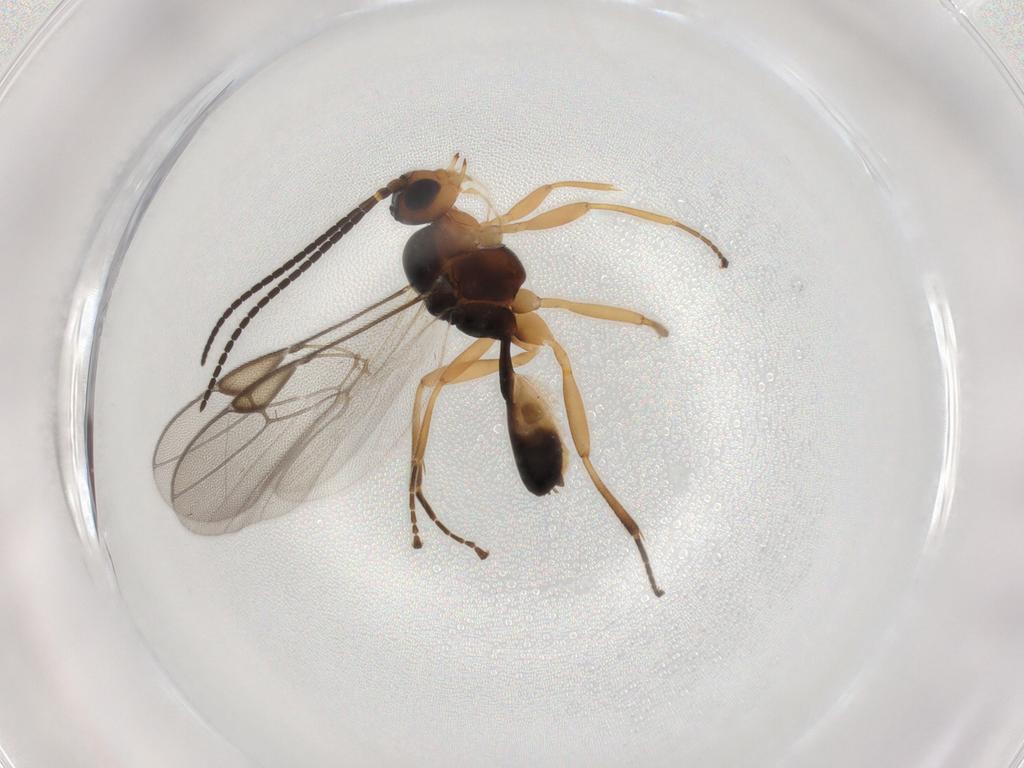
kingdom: Animalia
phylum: Arthropoda
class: Insecta
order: Hymenoptera
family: Braconidae
